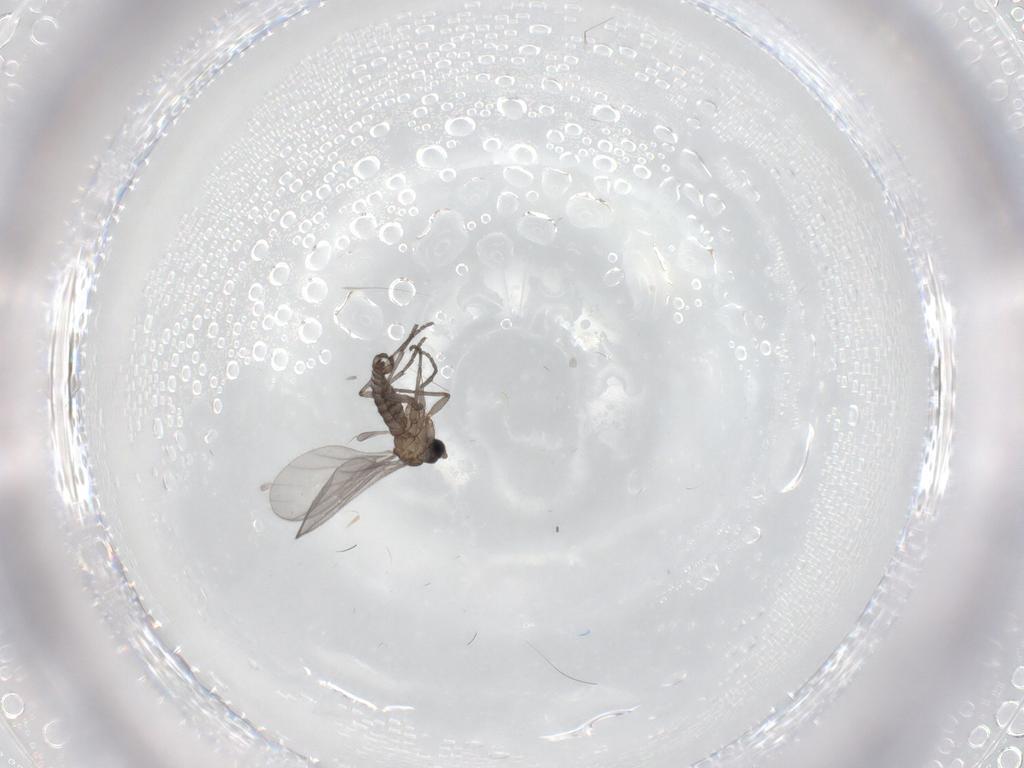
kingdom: Animalia
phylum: Arthropoda
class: Insecta
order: Diptera
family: Sciaridae
